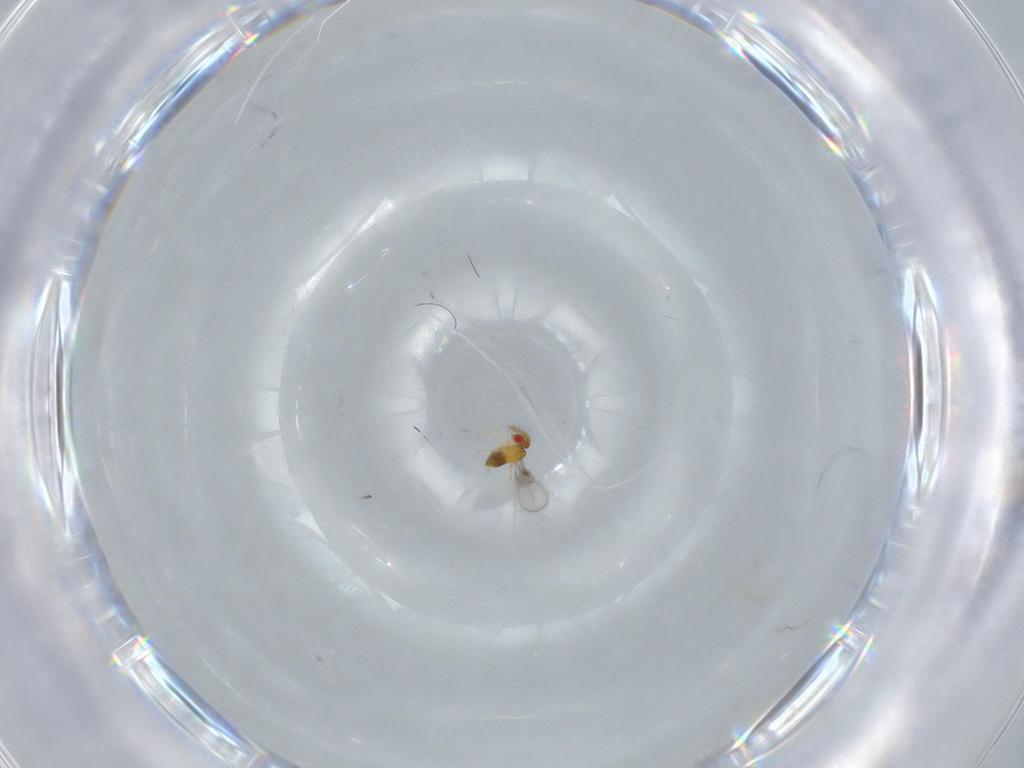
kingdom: Animalia
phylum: Arthropoda
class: Insecta
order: Hymenoptera
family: Trichogrammatidae
